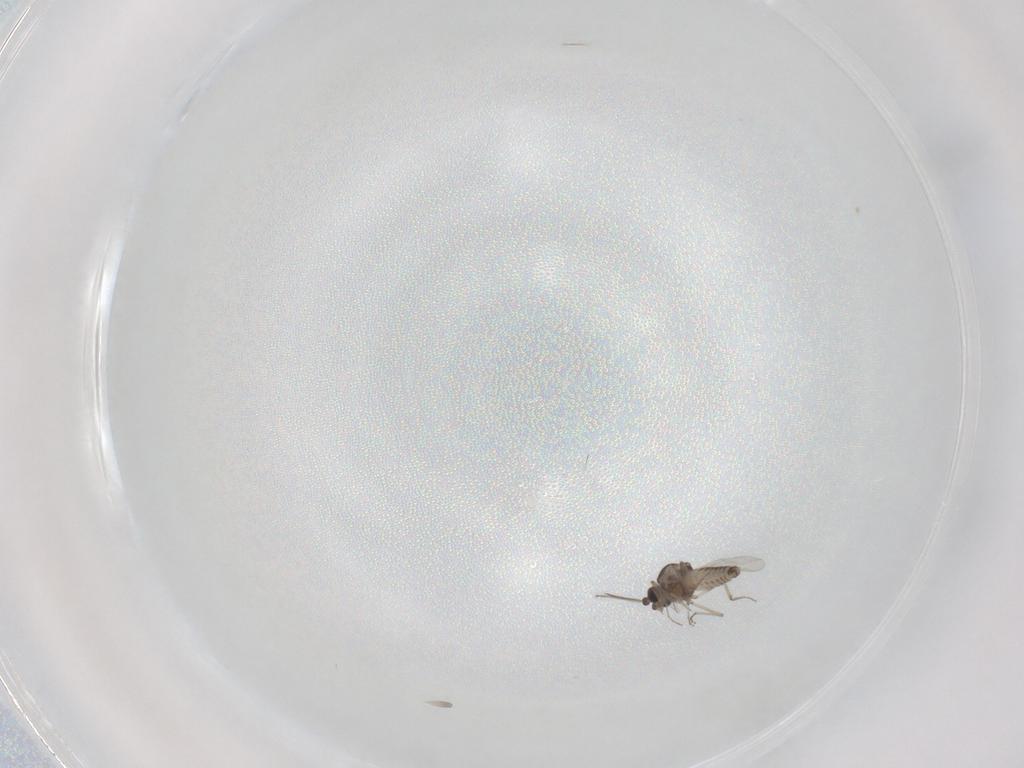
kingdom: Animalia
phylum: Arthropoda
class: Insecta
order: Diptera
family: Ceratopogonidae
